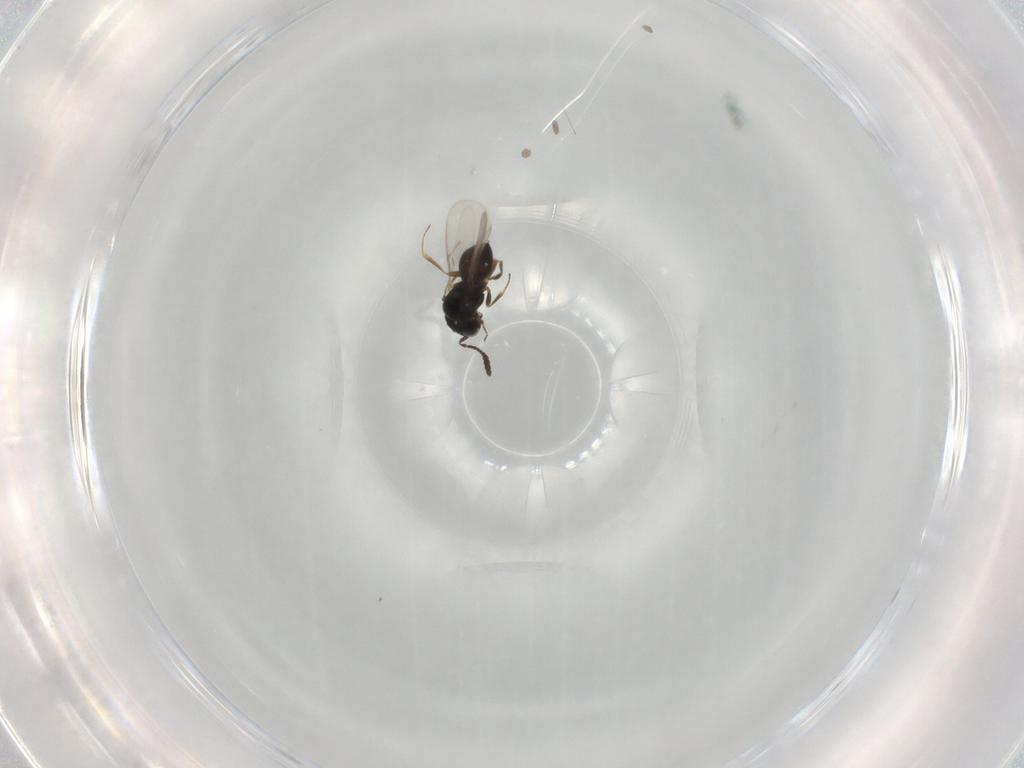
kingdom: Animalia
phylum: Arthropoda
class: Insecta
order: Hymenoptera
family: Scelionidae
